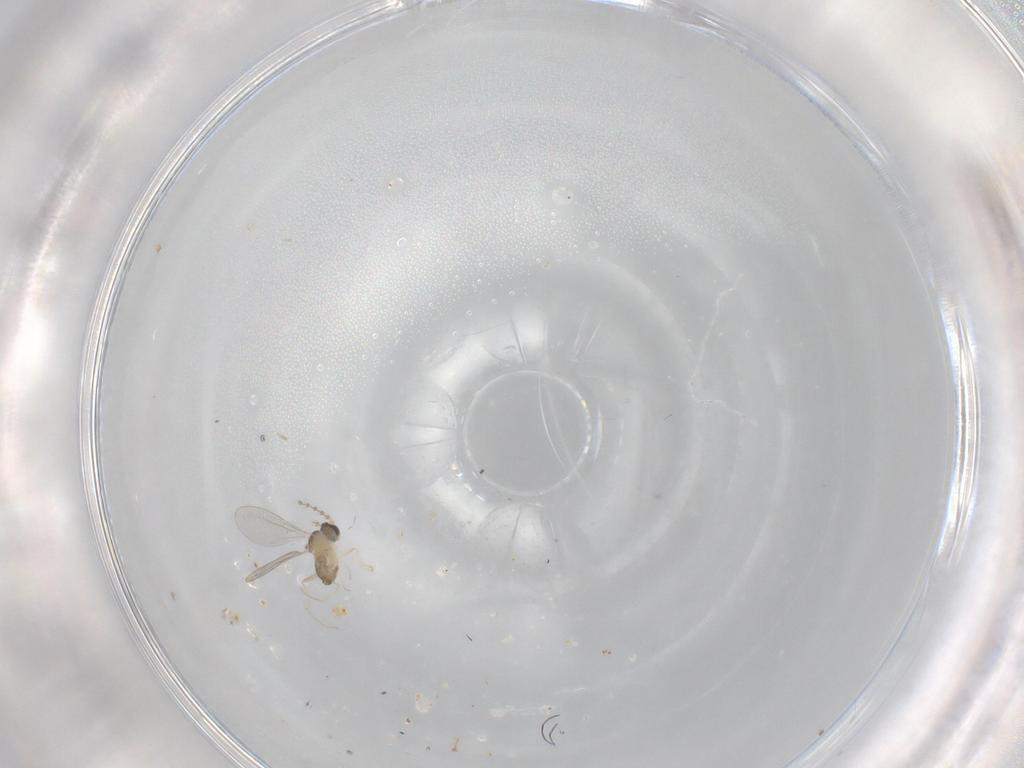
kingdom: Animalia
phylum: Arthropoda
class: Insecta
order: Diptera
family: Cecidomyiidae
